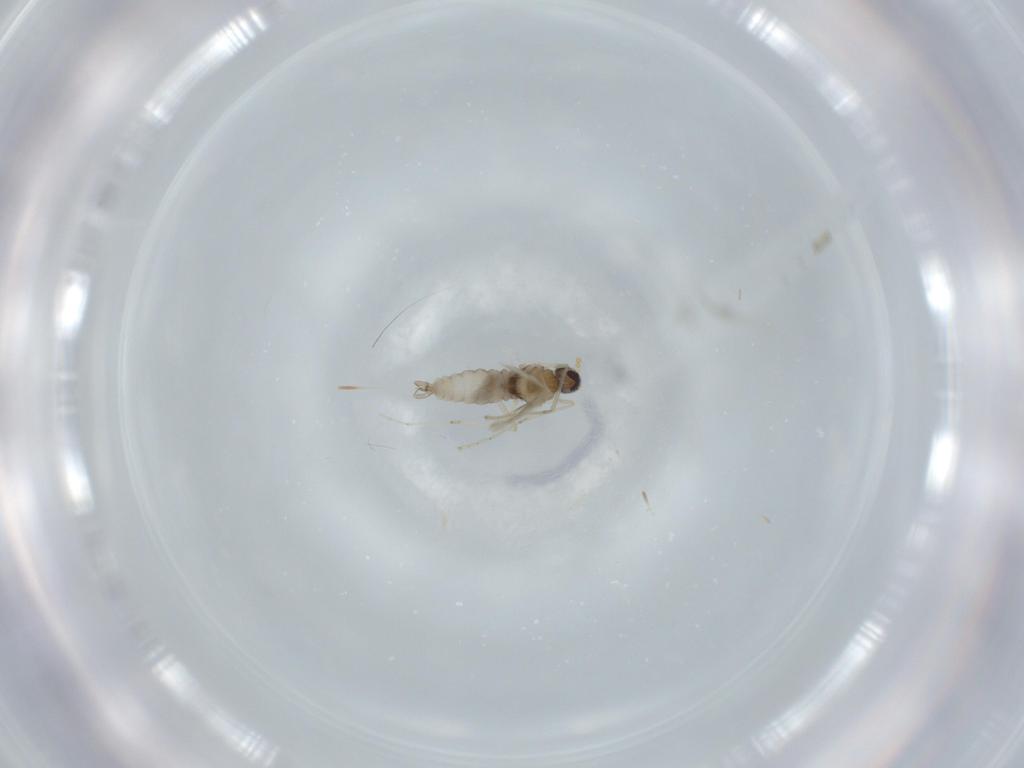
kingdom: Animalia
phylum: Arthropoda
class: Insecta
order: Diptera
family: Cecidomyiidae
